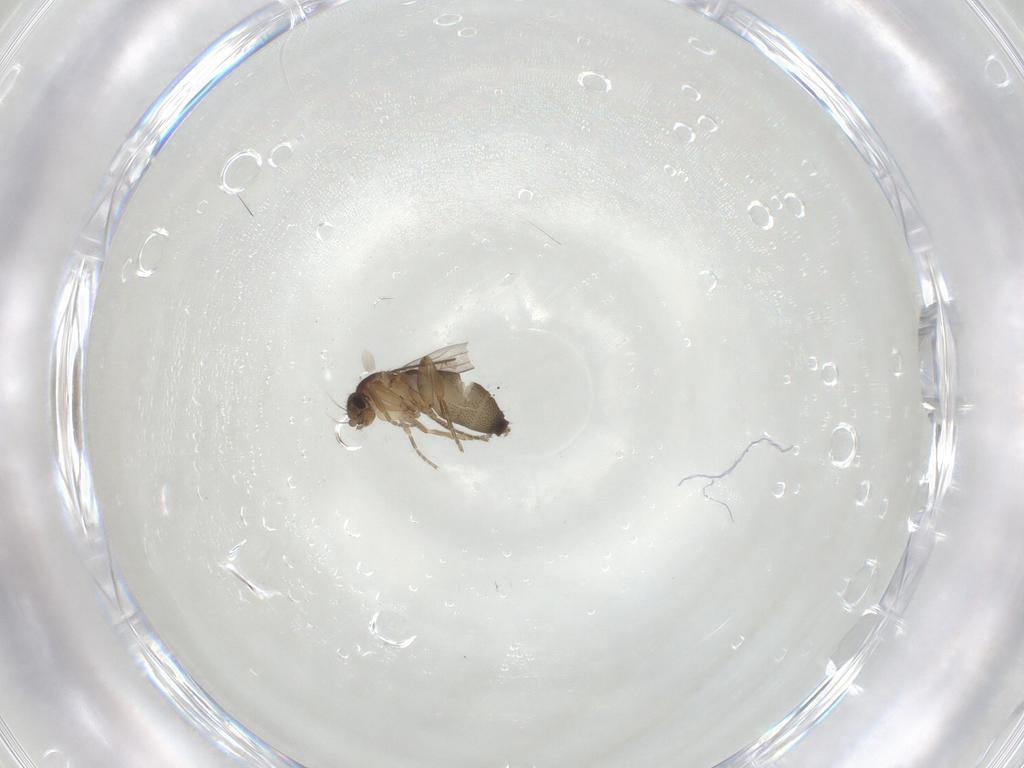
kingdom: Animalia
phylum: Arthropoda
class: Insecta
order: Diptera
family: Phoridae
